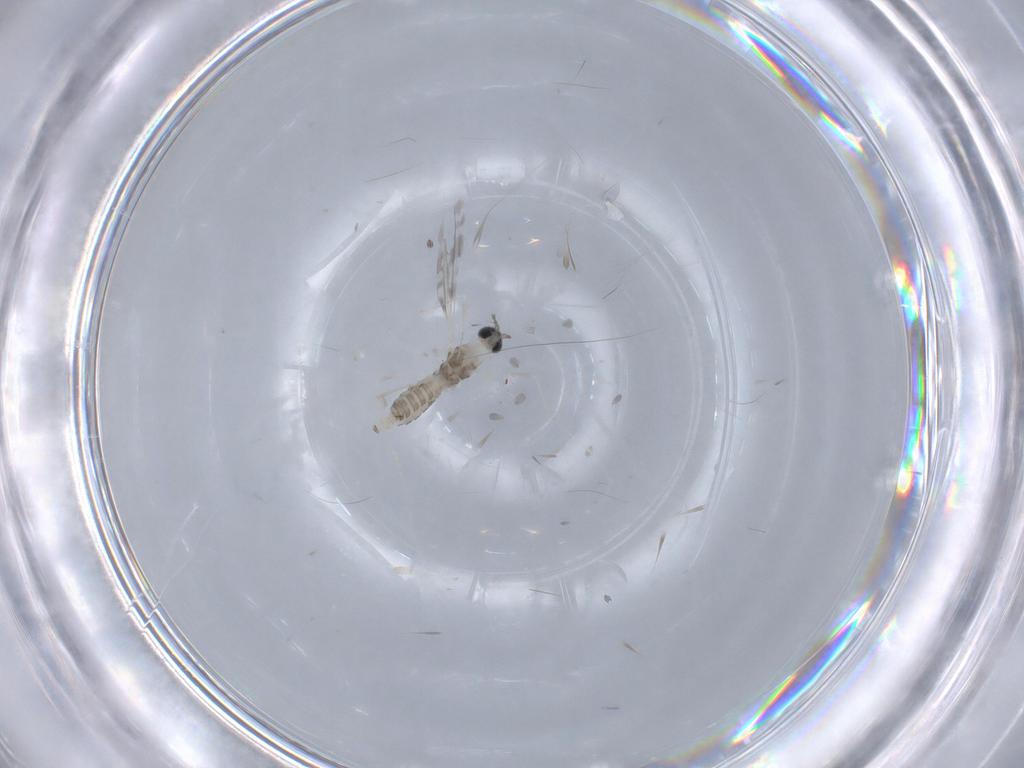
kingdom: Animalia
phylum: Arthropoda
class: Insecta
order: Diptera
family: Cecidomyiidae
